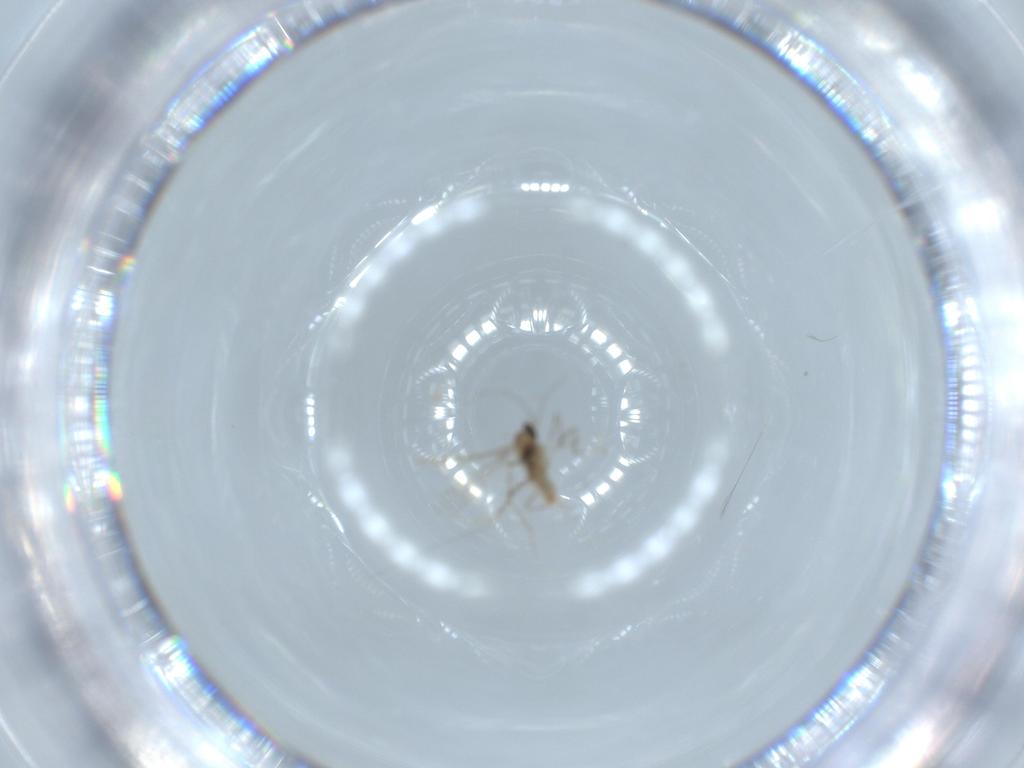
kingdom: Animalia
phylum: Arthropoda
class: Insecta
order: Diptera
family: Cecidomyiidae
